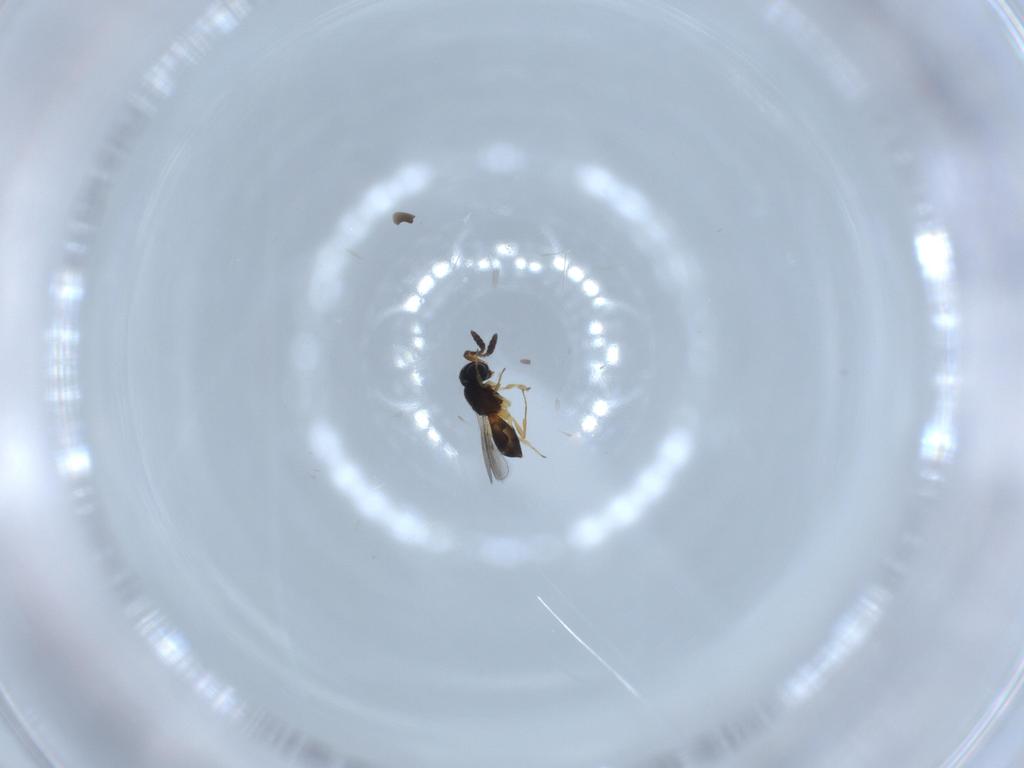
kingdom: Animalia
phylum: Arthropoda
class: Insecta
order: Hymenoptera
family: Scelionidae
